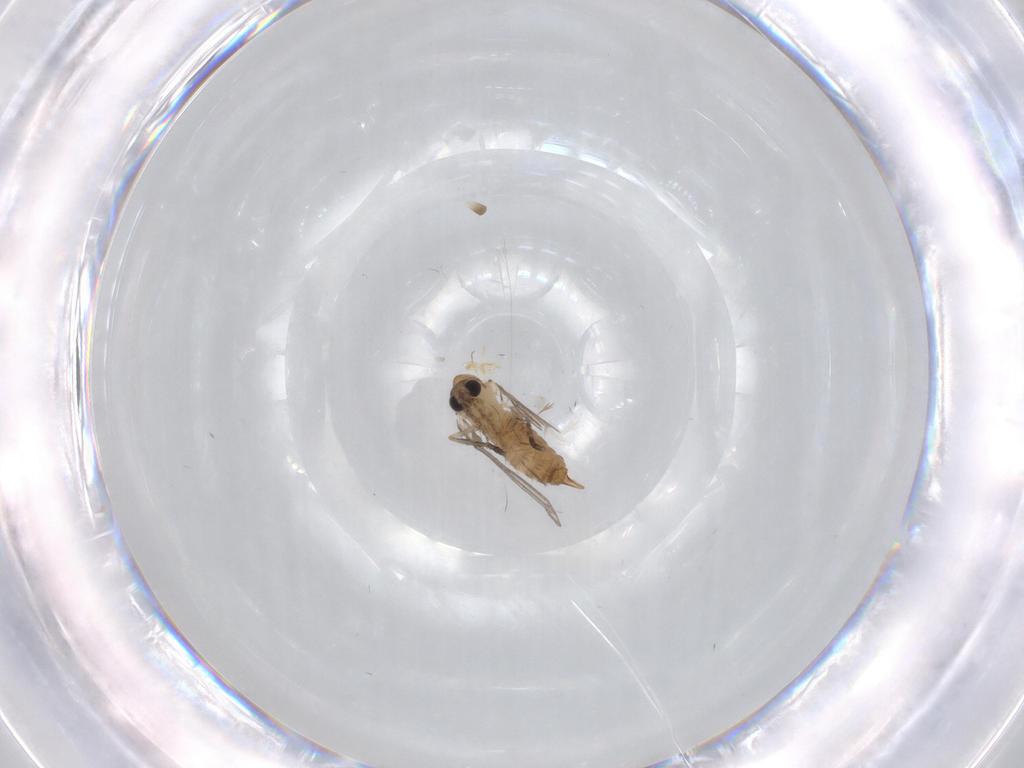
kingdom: Animalia
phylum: Arthropoda
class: Insecta
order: Diptera
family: Psychodidae
